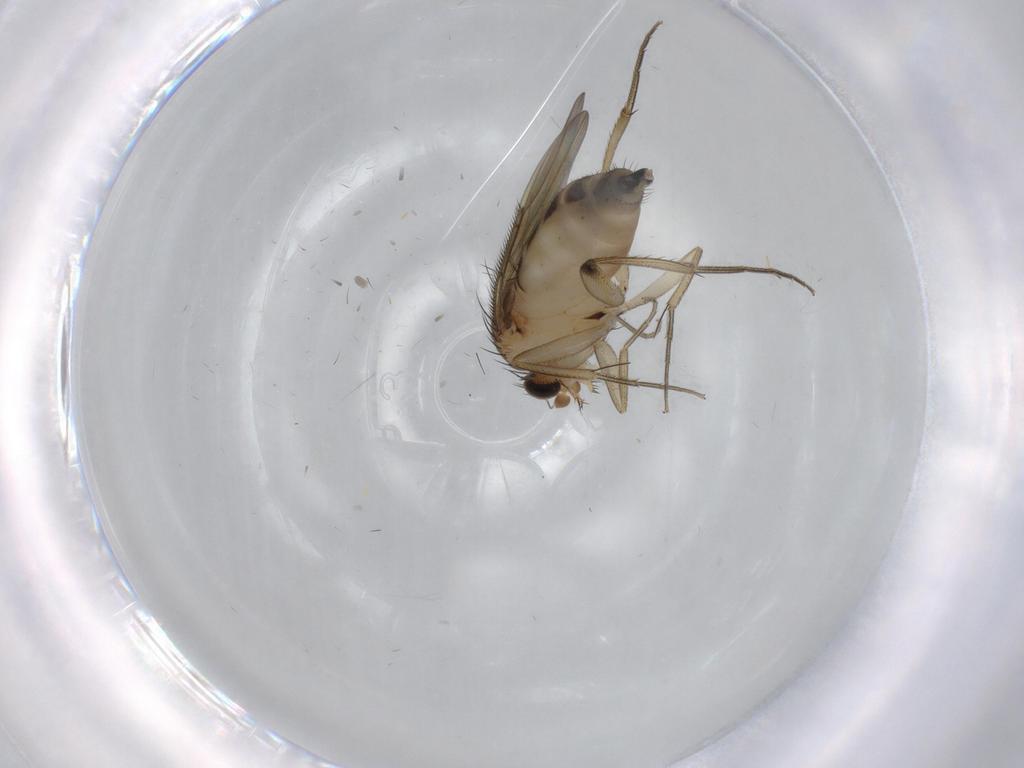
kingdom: Animalia
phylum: Arthropoda
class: Insecta
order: Diptera
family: Phoridae
